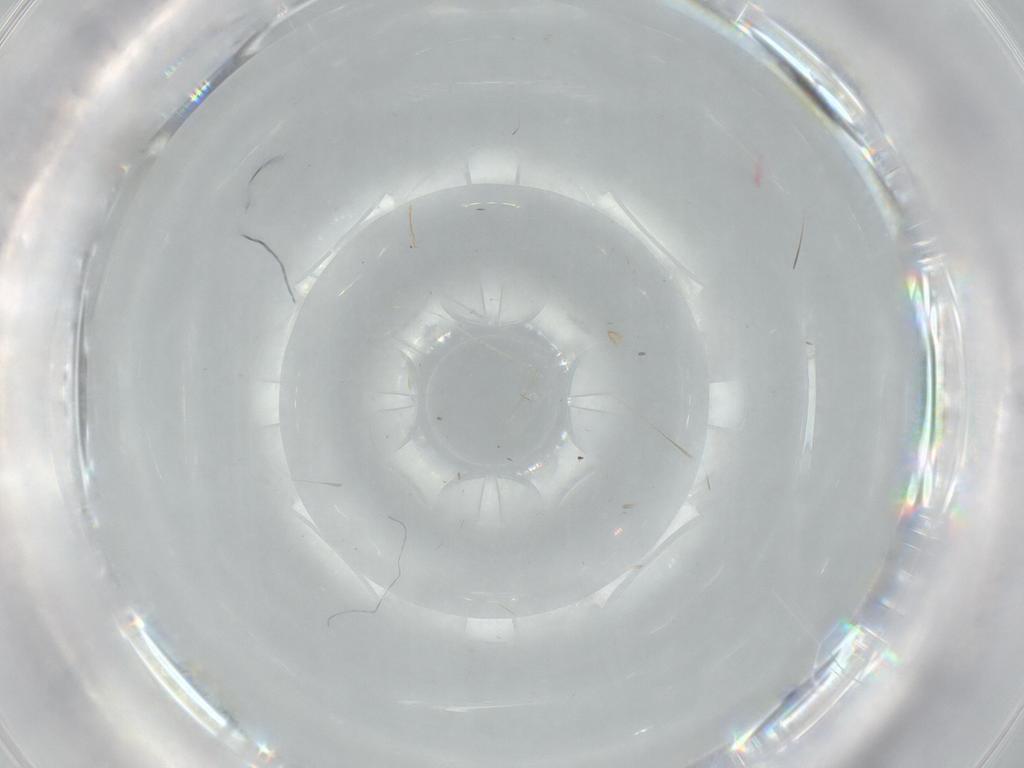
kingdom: Animalia
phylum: Arthropoda
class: Insecta
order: Diptera
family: Cecidomyiidae
